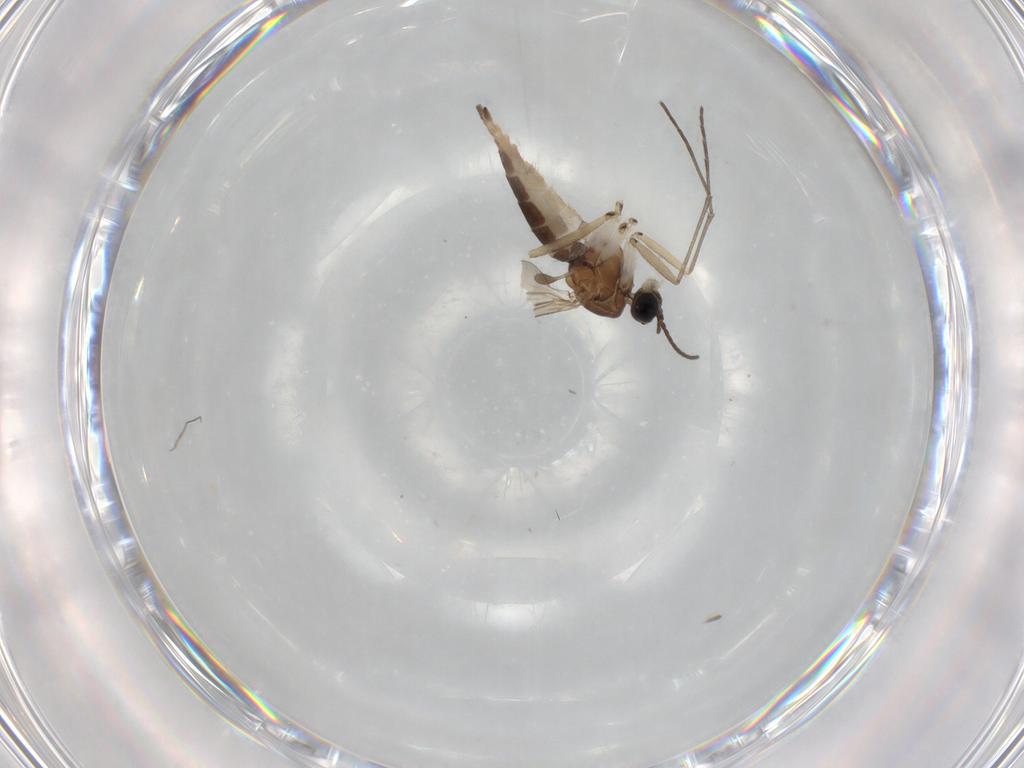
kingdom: Animalia
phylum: Arthropoda
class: Insecta
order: Diptera
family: Sciaridae
